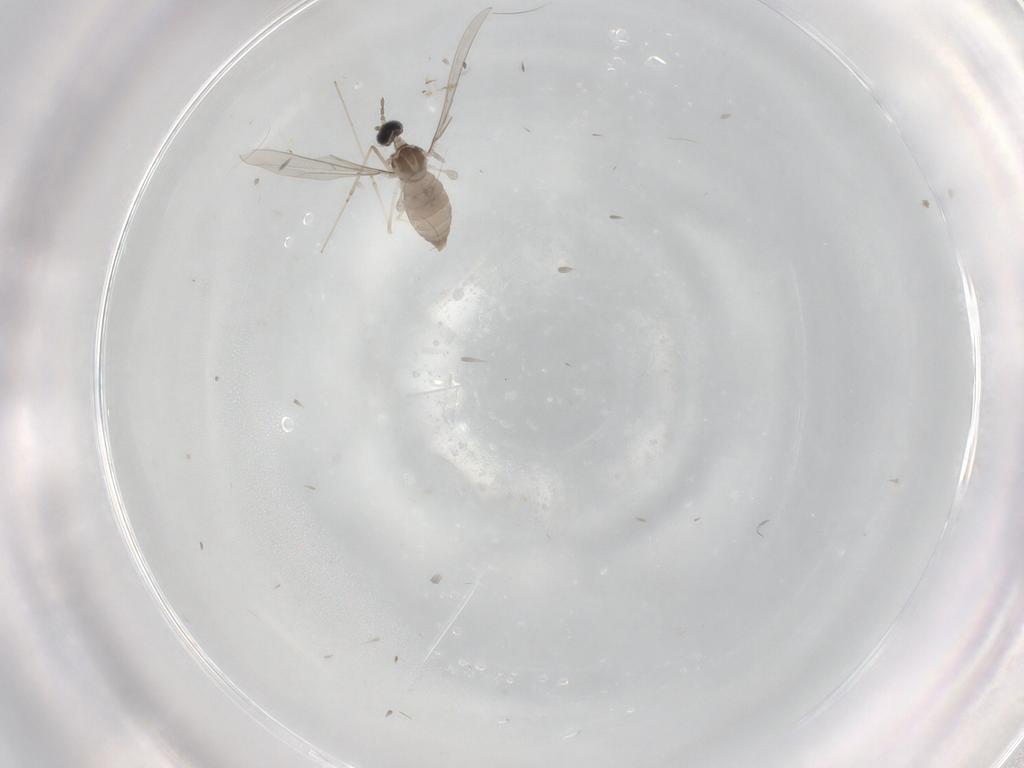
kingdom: Animalia
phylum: Arthropoda
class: Insecta
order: Diptera
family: Cecidomyiidae
